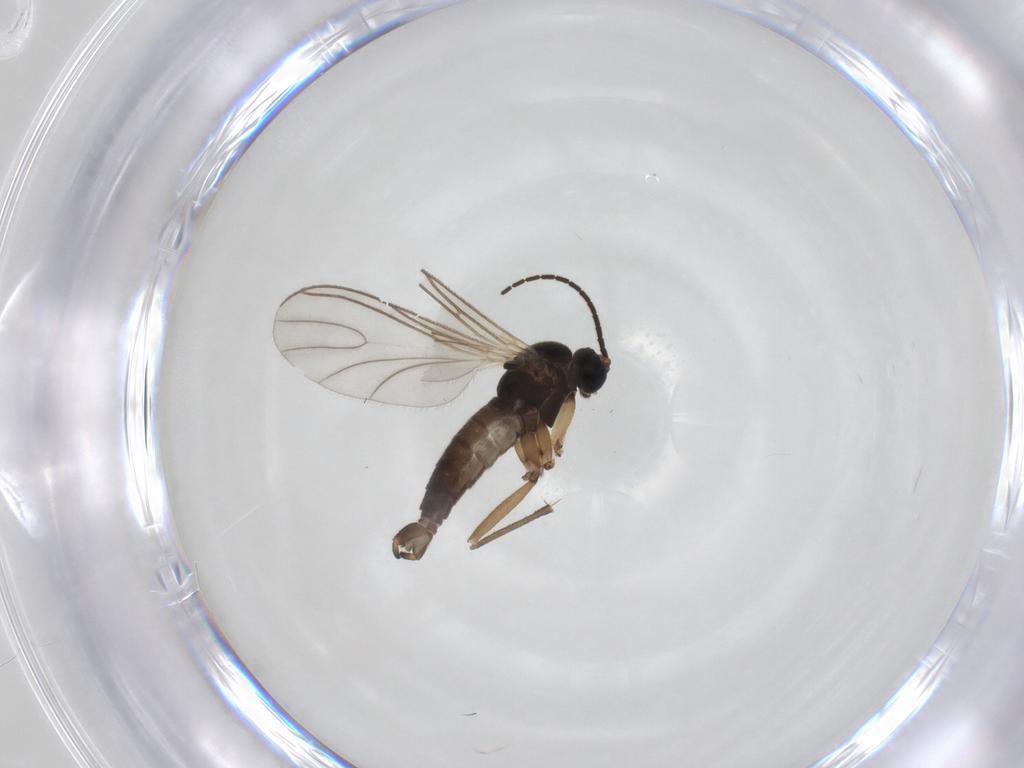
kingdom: Animalia
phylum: Arthropoda
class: Insecta
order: Diptera
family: Sciaridae
